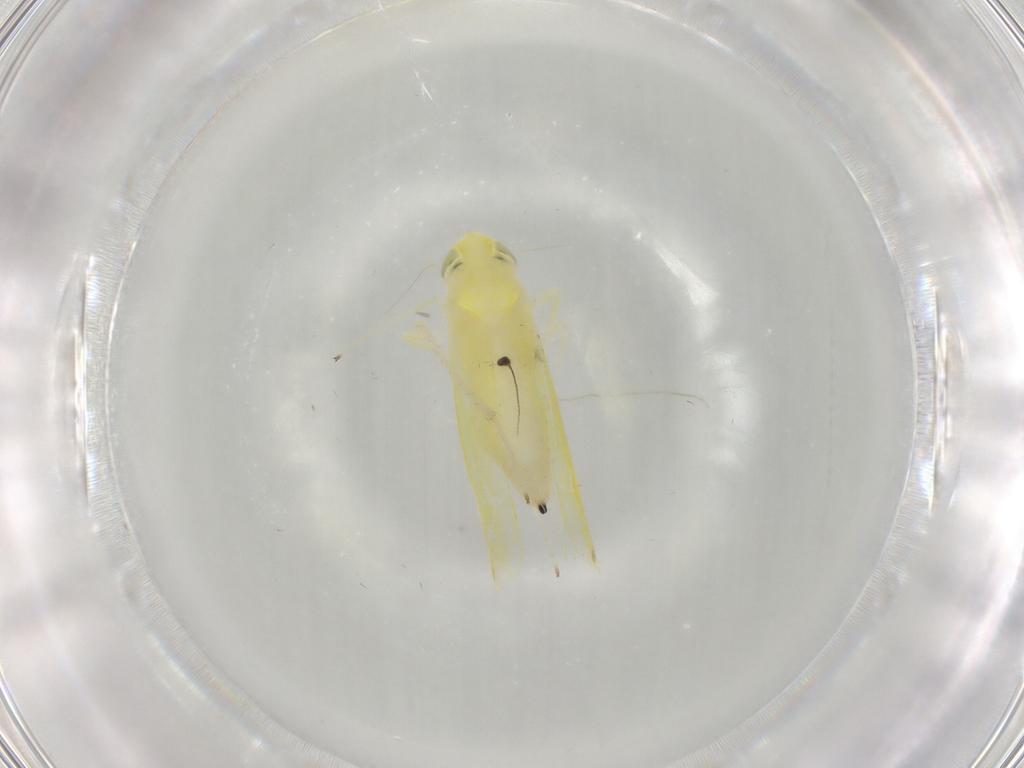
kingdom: Animalia
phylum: Arthropoda
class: Insecta
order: Hemiptera
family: Cicadellidae
